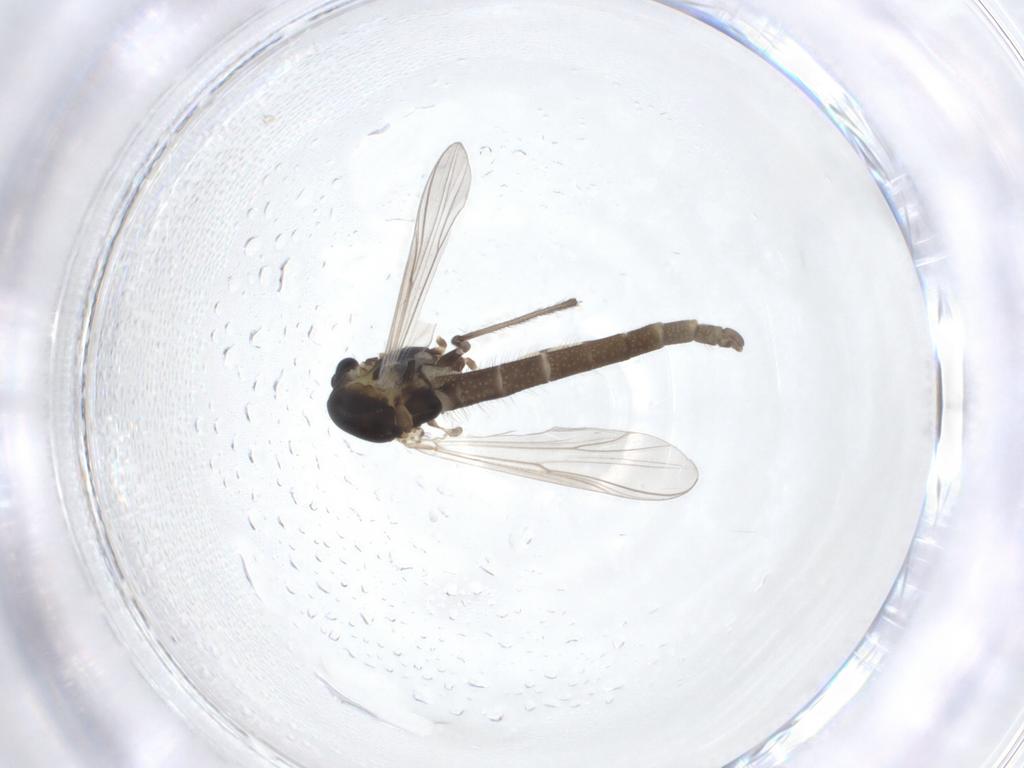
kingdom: Animalia
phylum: Arthropoda
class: Insecta
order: Diptera
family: Chironomidae
